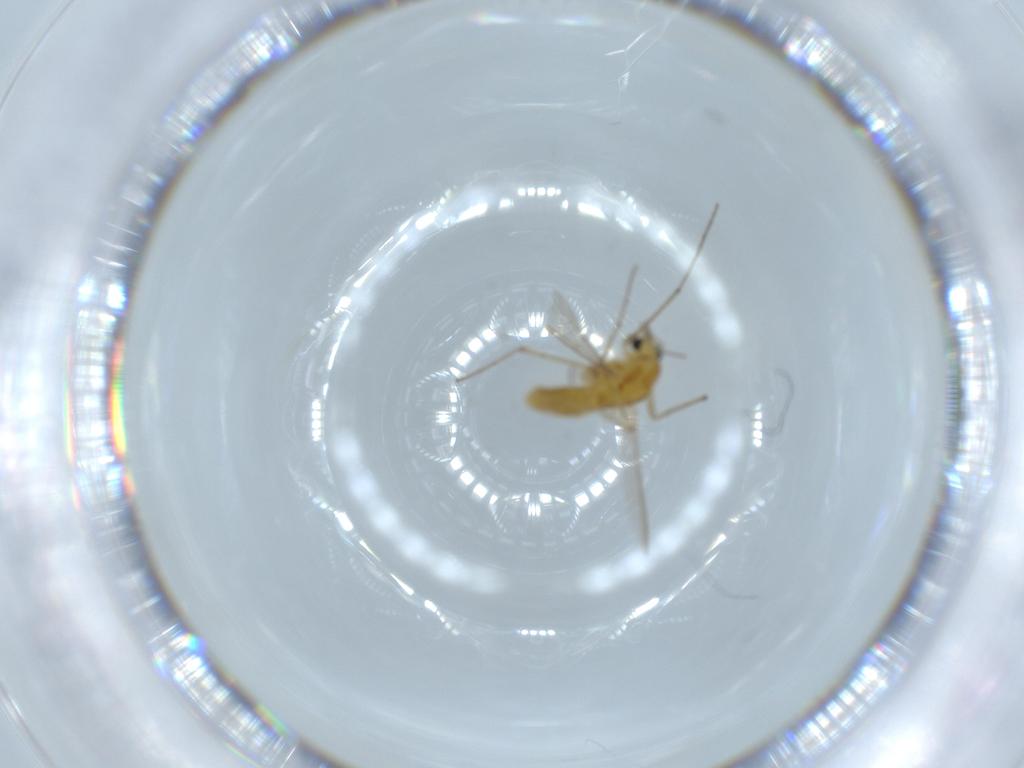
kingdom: Animalia
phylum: Arthropoda
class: Insecta
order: Diptera
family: Chironomidae
